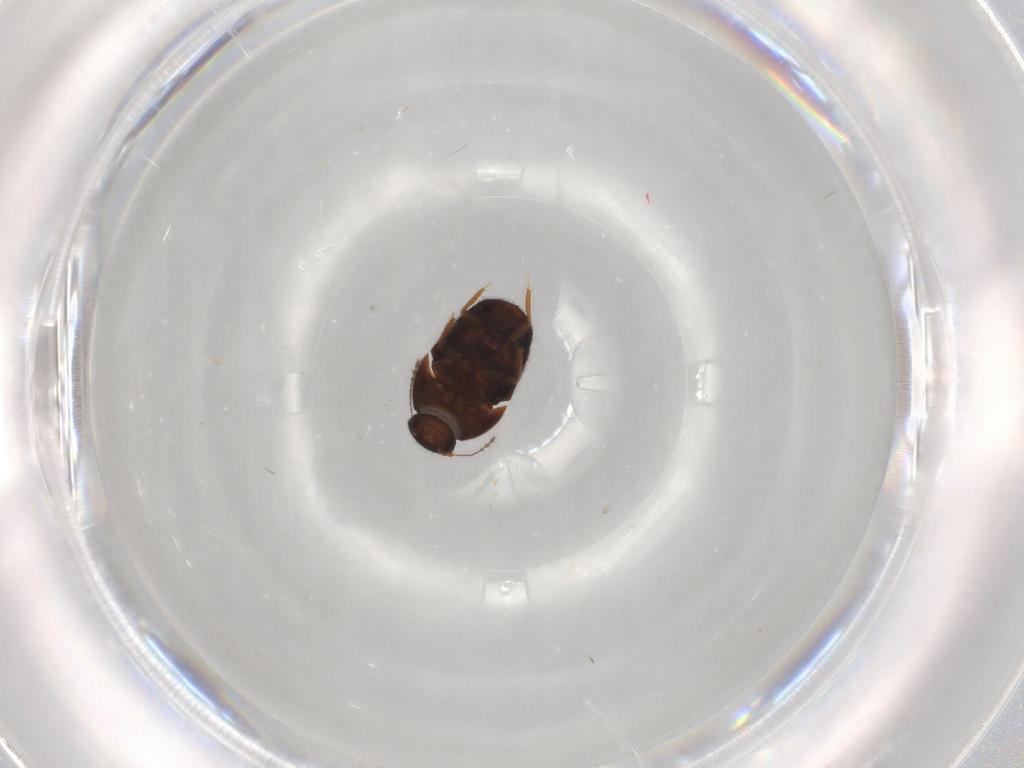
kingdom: Animalia
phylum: Arthropoda
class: Insecta
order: Coleoptera
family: Ptiliidae
